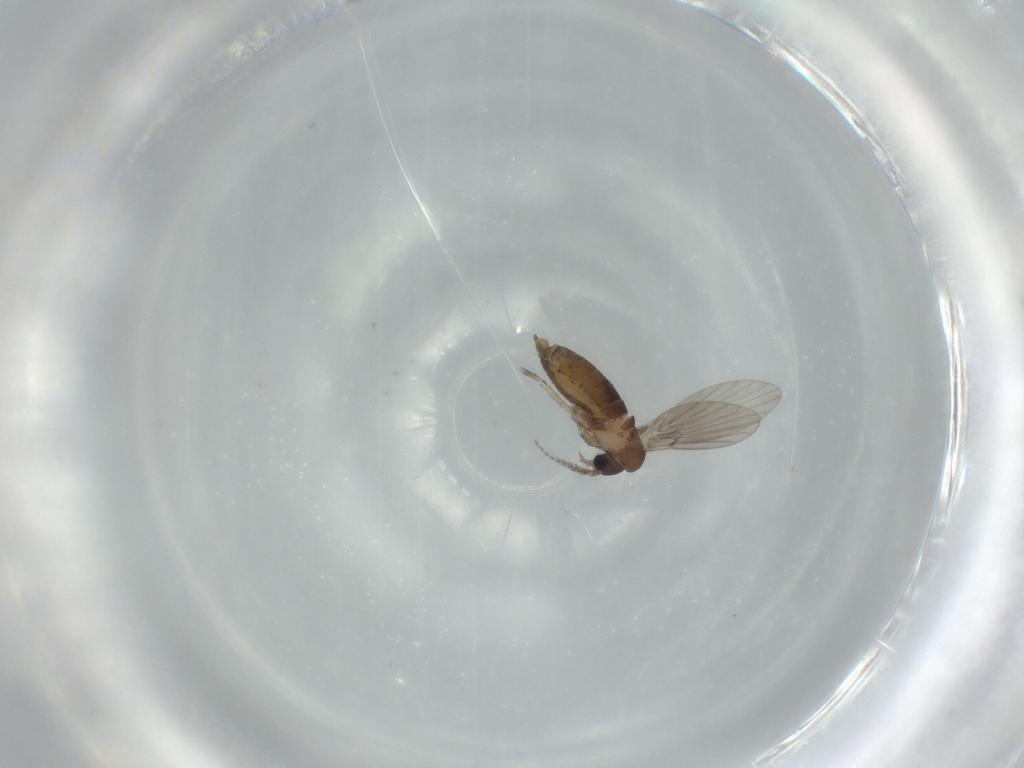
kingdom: Animalia
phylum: Arthropoda
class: Insecta
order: Diptera
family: Psychodidae
